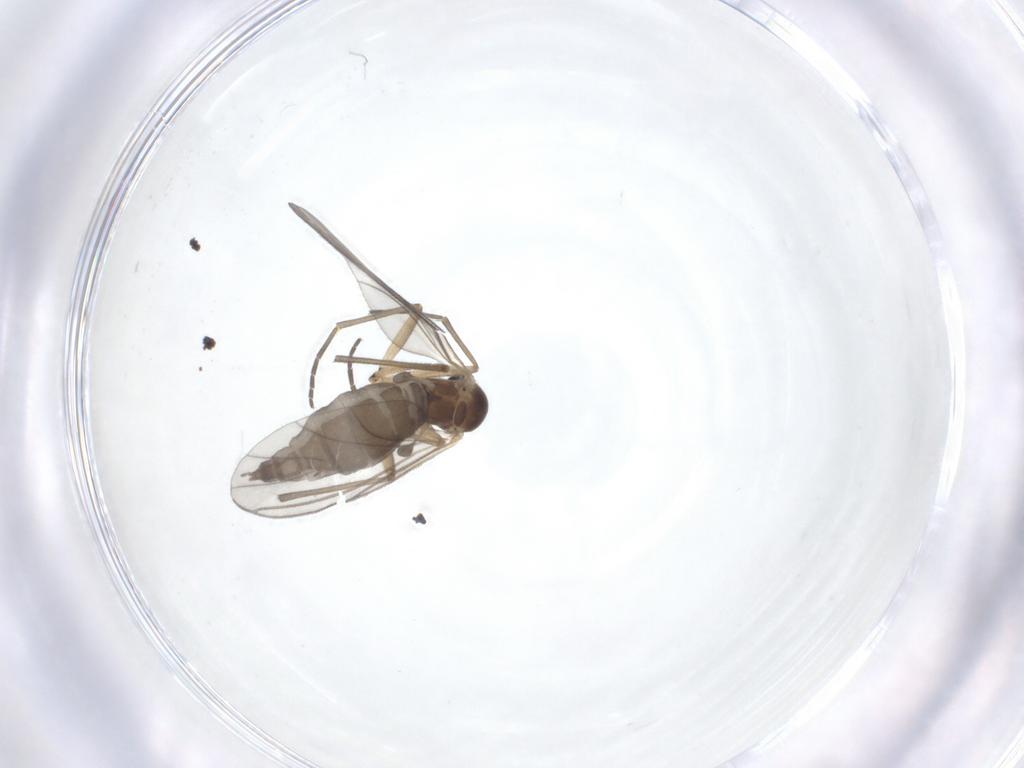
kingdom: Animalia
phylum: Arthropoda
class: Insecta
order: Diptera
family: Sciaridae
